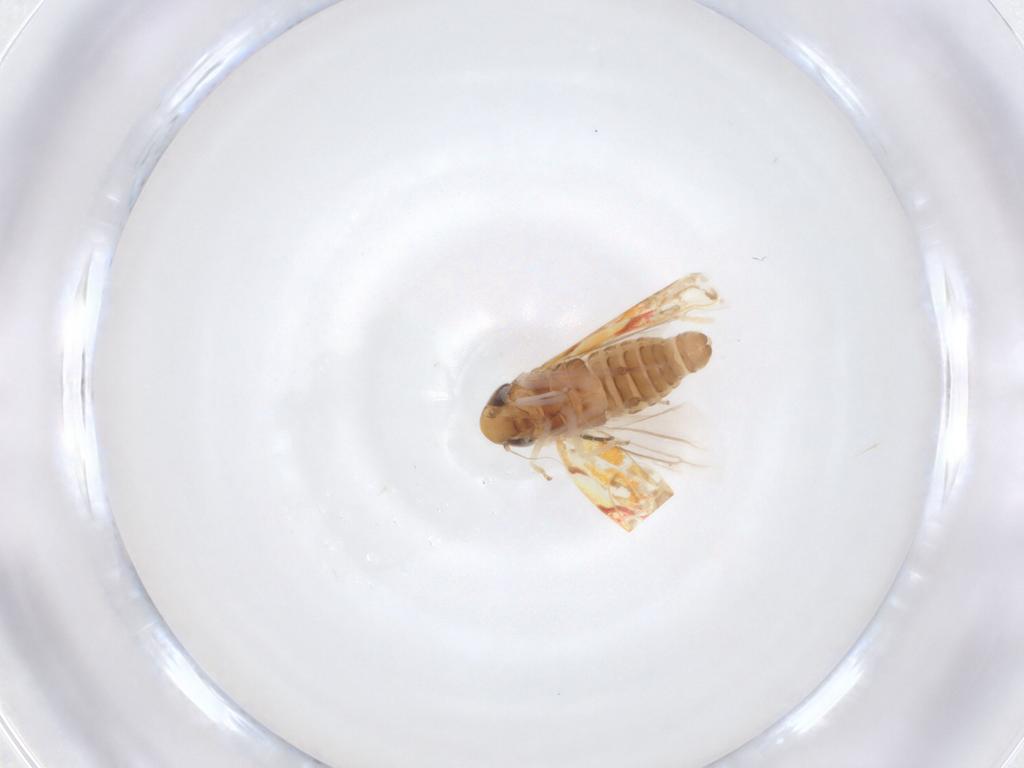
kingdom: Animalia
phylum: Arthropoda
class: Insecta
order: Hemiptera
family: Cicadellidae
